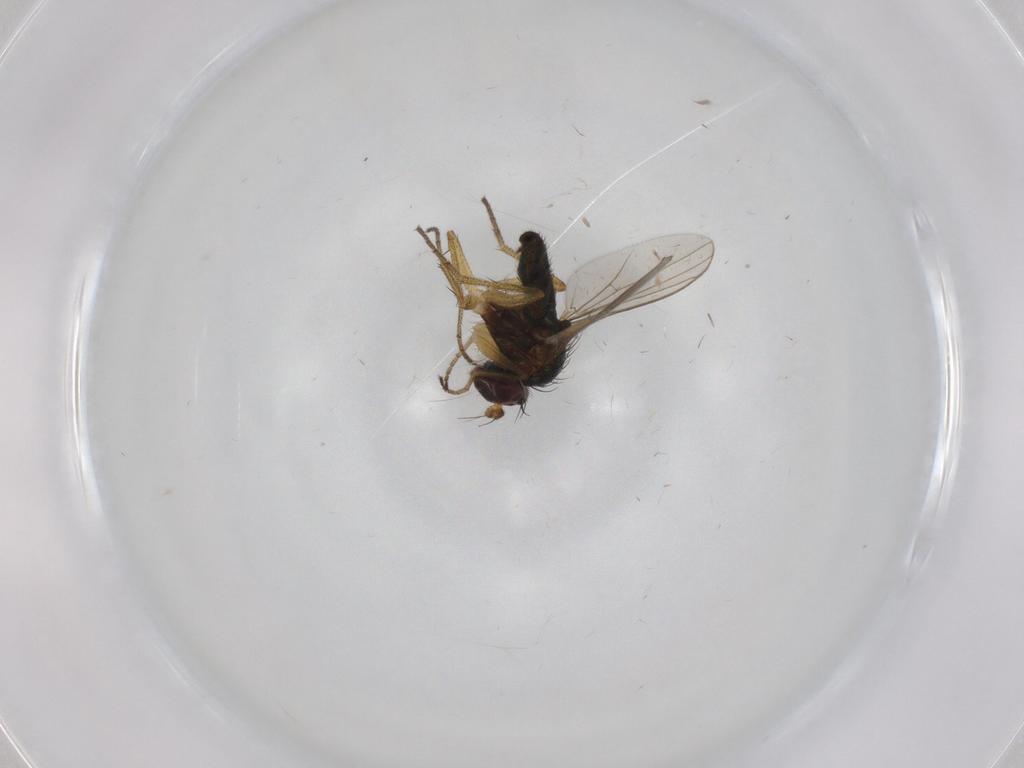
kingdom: Animalia
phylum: Arthropoda
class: Insecta
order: Diptera
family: Dolichopodidae
